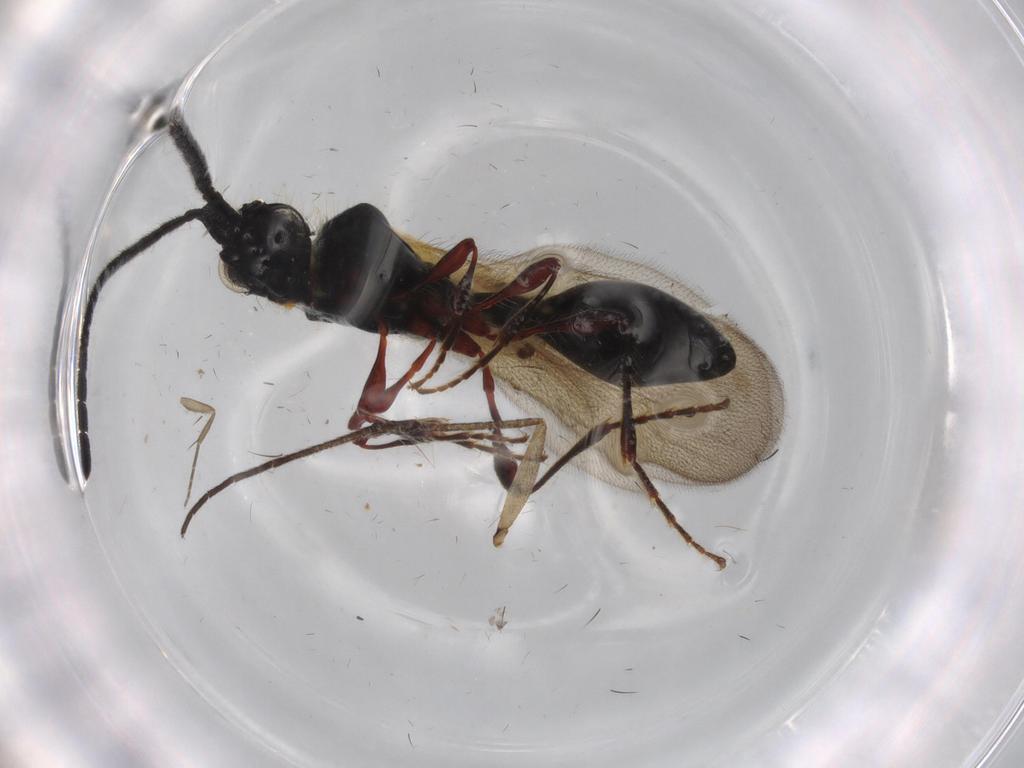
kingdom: Animalia
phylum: Arthropoda
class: Insecta
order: Hymenoptera
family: Diapriidae
